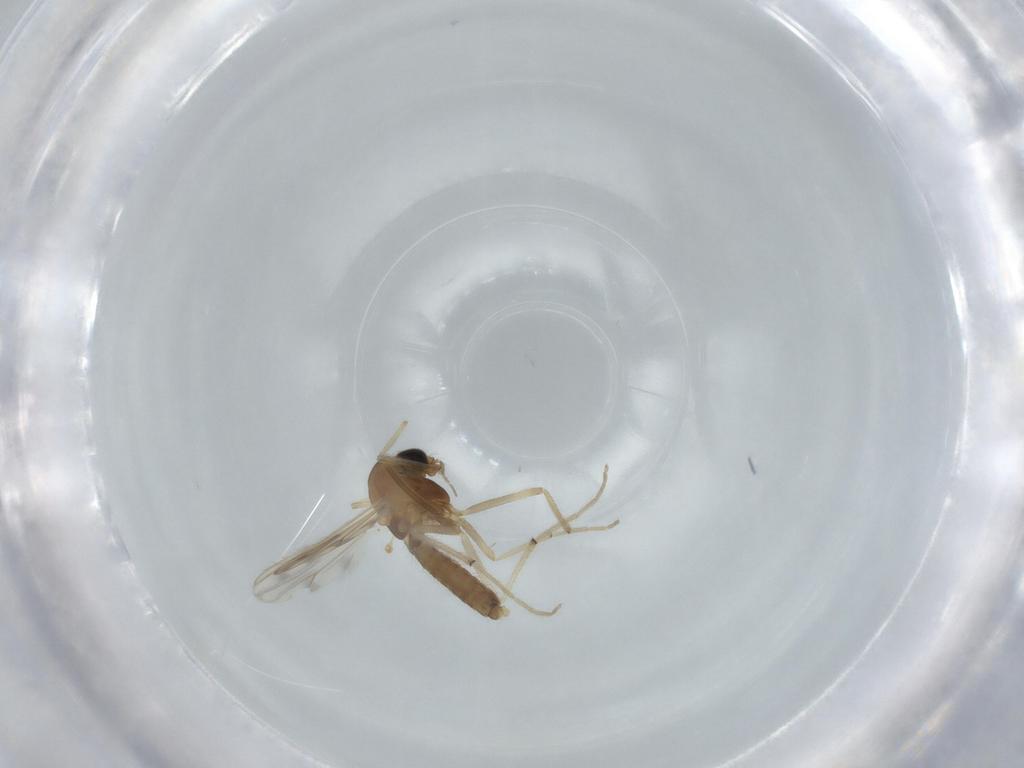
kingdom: Animalia
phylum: Arthropoda
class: Insecta
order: Diptera
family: Chironomidae
